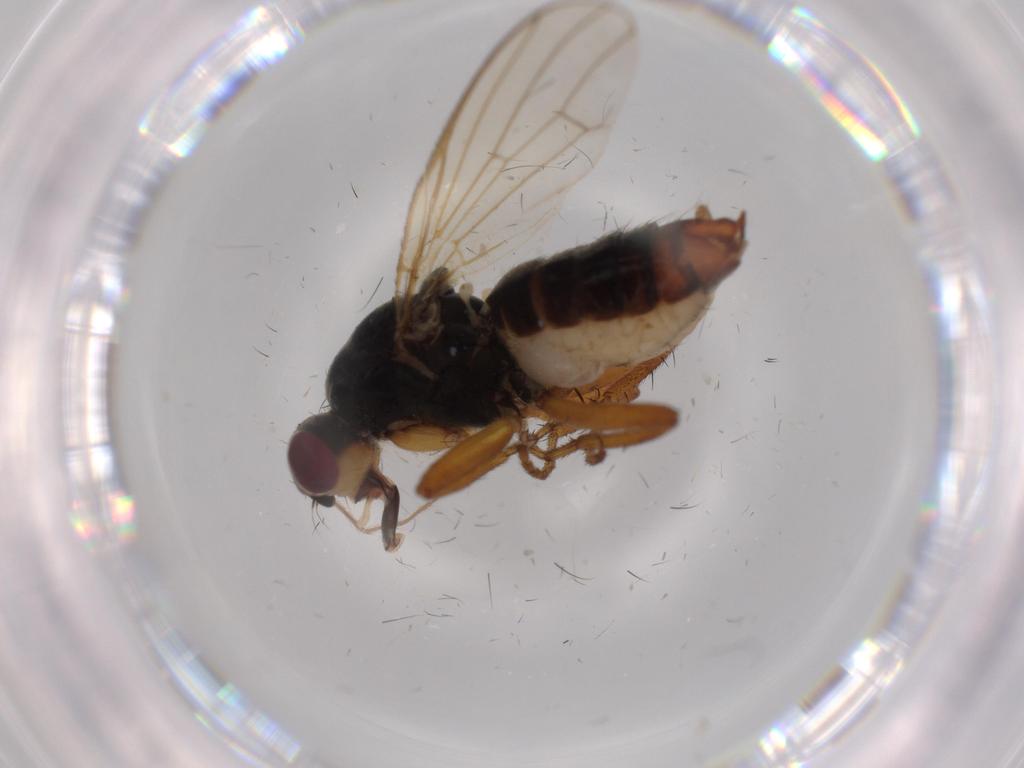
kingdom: Animalia
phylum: Arthropoda
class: Insecta
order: Diptera
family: Scathophagidae
